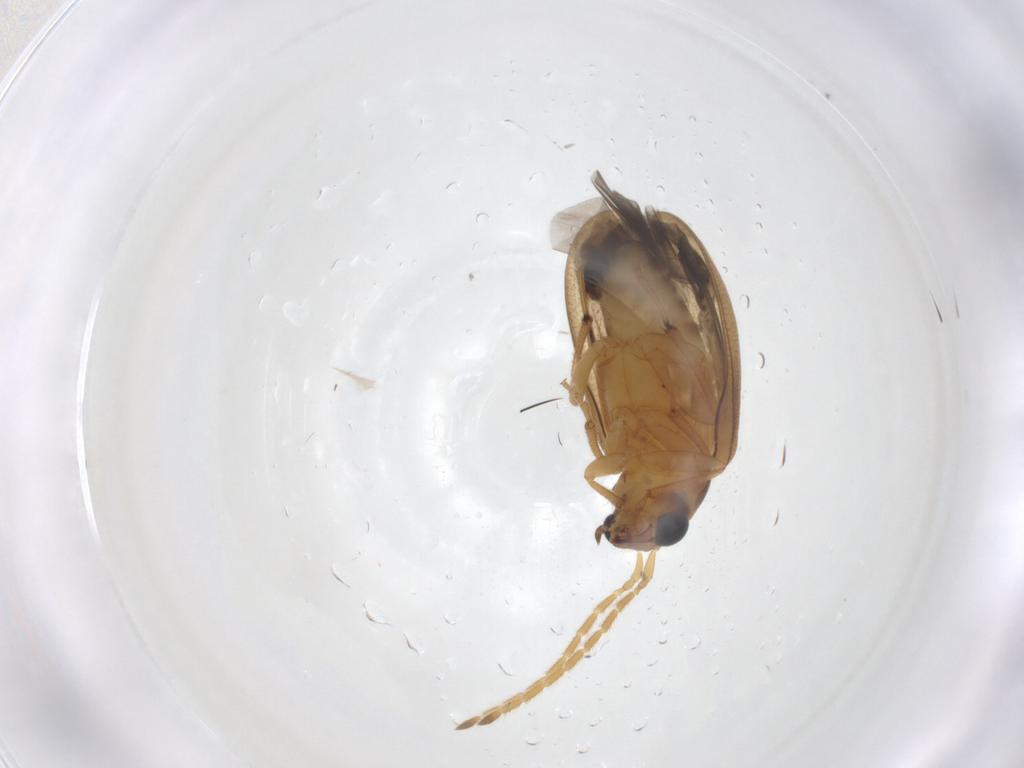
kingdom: Animalia
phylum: Arthropoda
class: Insecta
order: Coleoptera
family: Chrysomelidae
